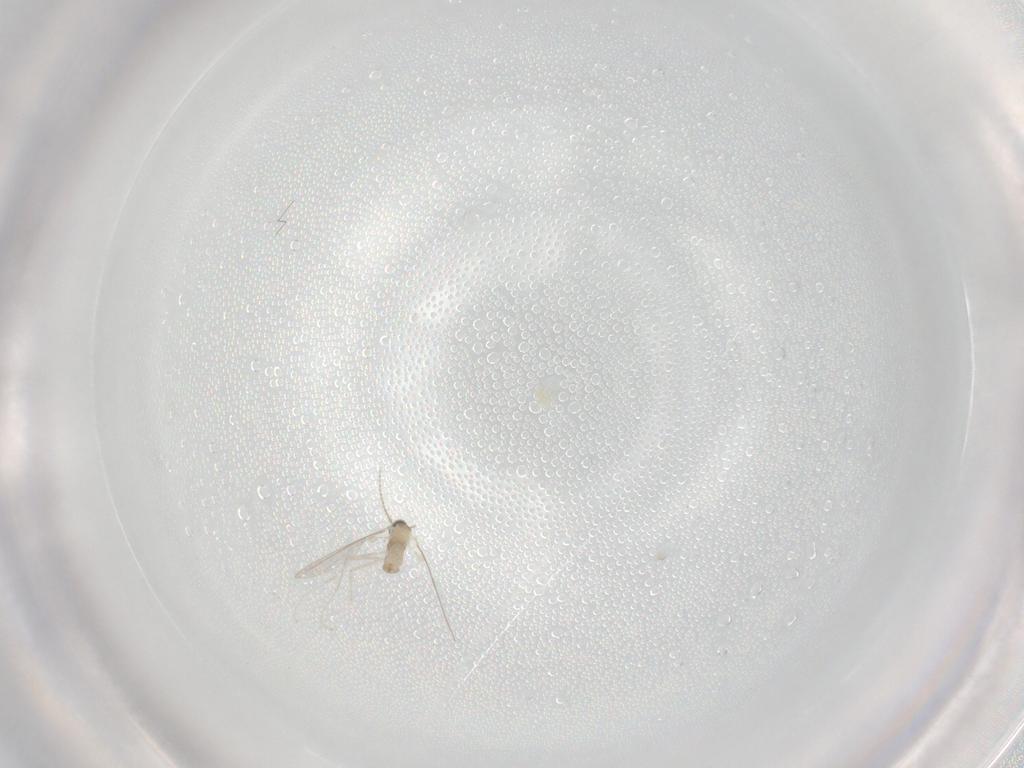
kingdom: Animalia
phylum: Arthropoda
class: Insecta
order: Diptera
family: Cecidomyiidae
